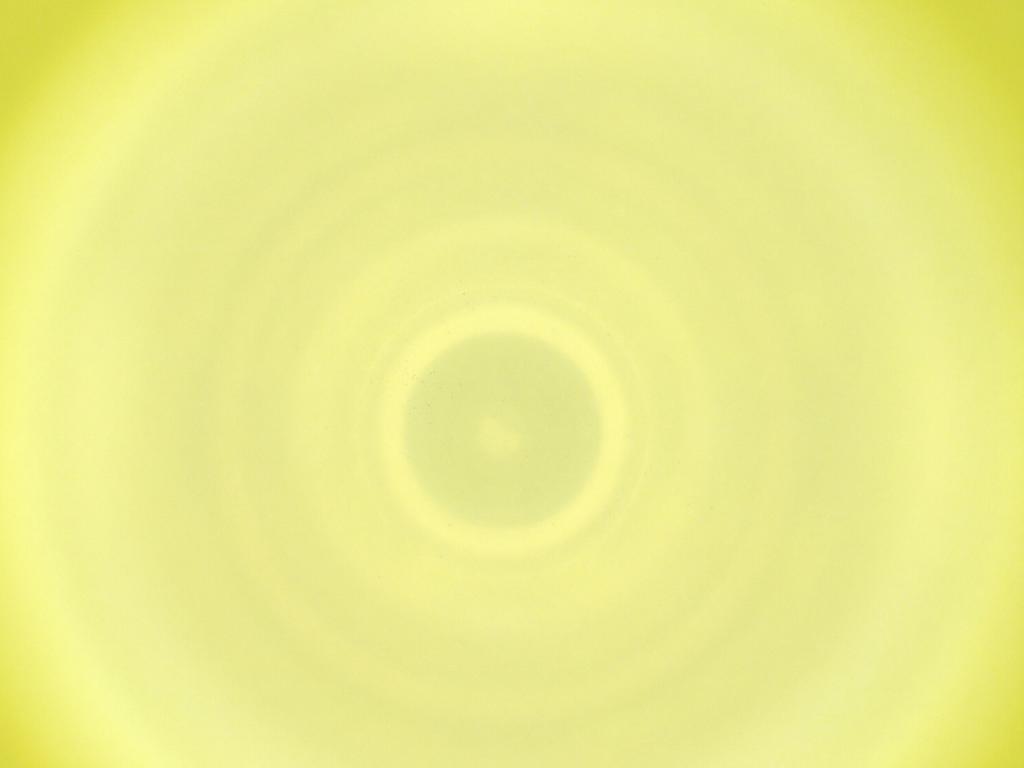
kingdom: Animalia
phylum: Arthropoda
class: Insecta
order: Diptera
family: Cecidomyiidae
